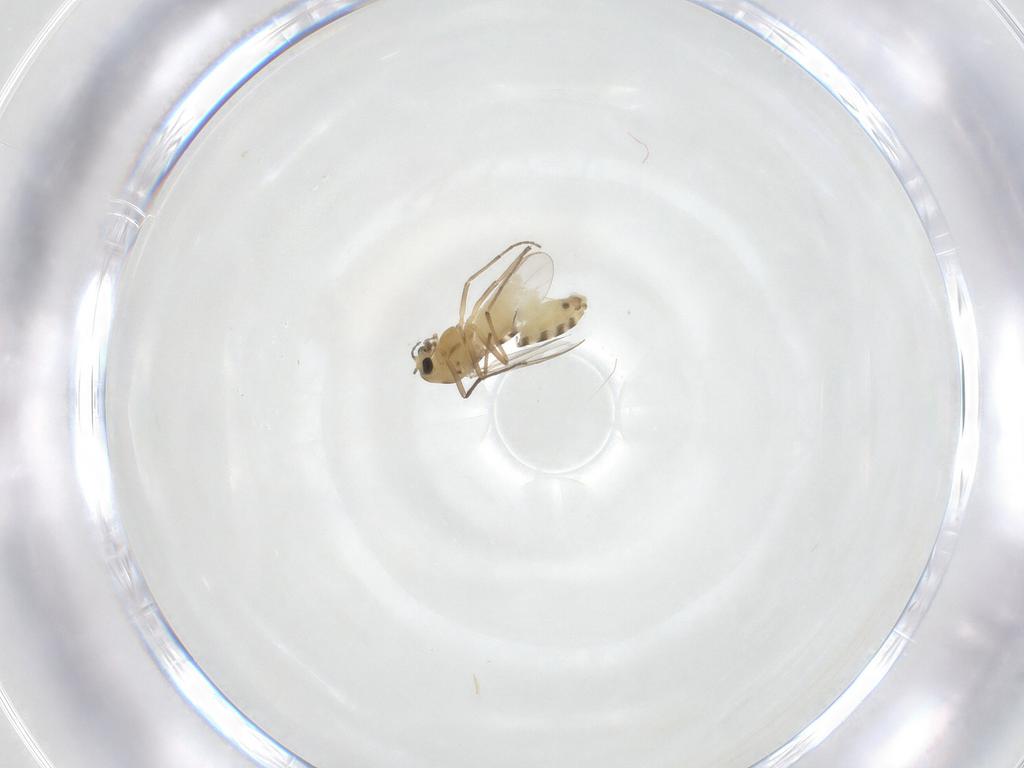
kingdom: Animalia
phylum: Arthropoda
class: Insecta
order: Diptera
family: Chironomidae
